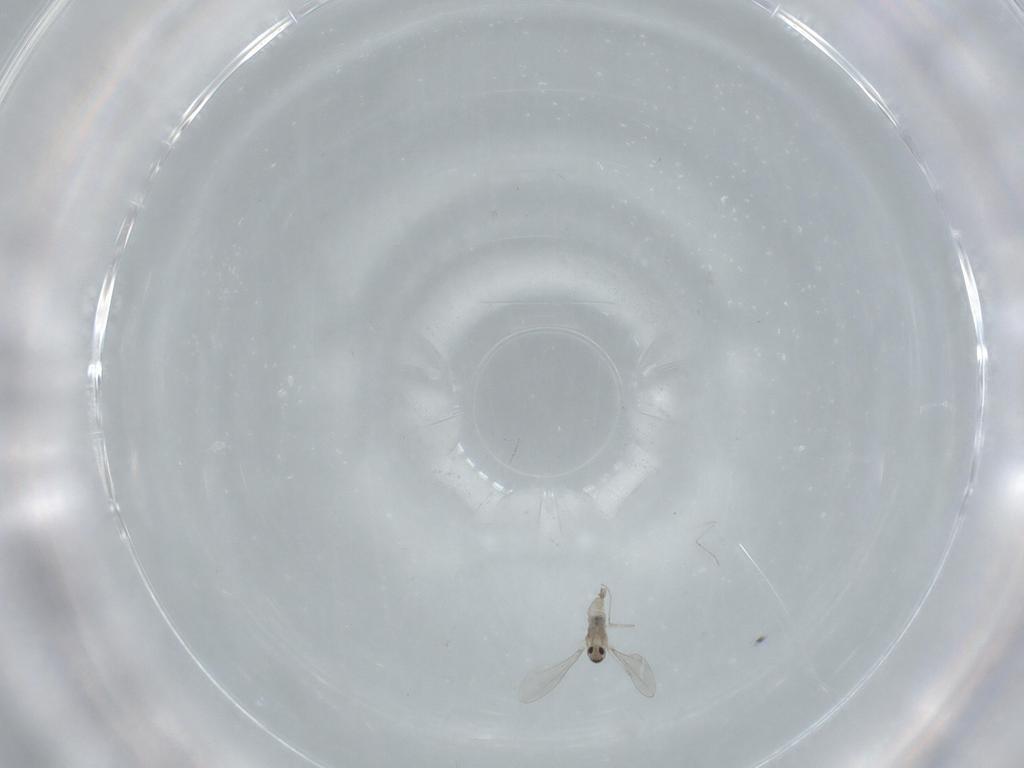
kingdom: Animalia
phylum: Arthropoda
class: Insecta
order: Diptera
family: Cecidomyiidae
